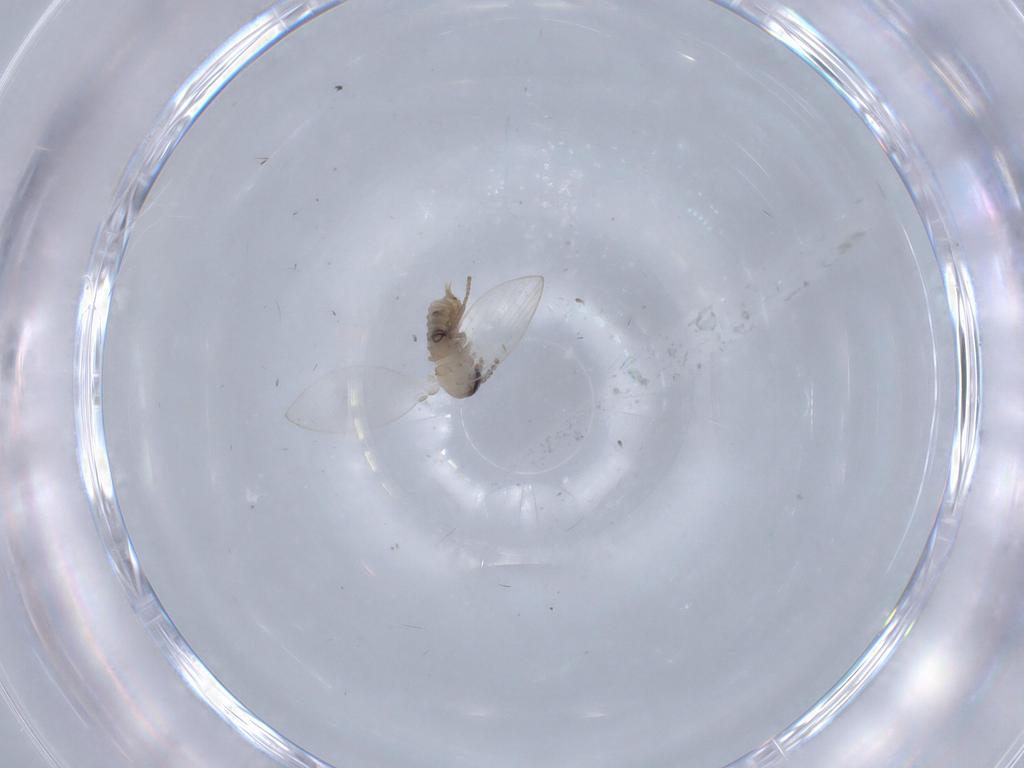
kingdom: Animalia
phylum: Arthropoda
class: Insecta
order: Diptera
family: Psychodidae
